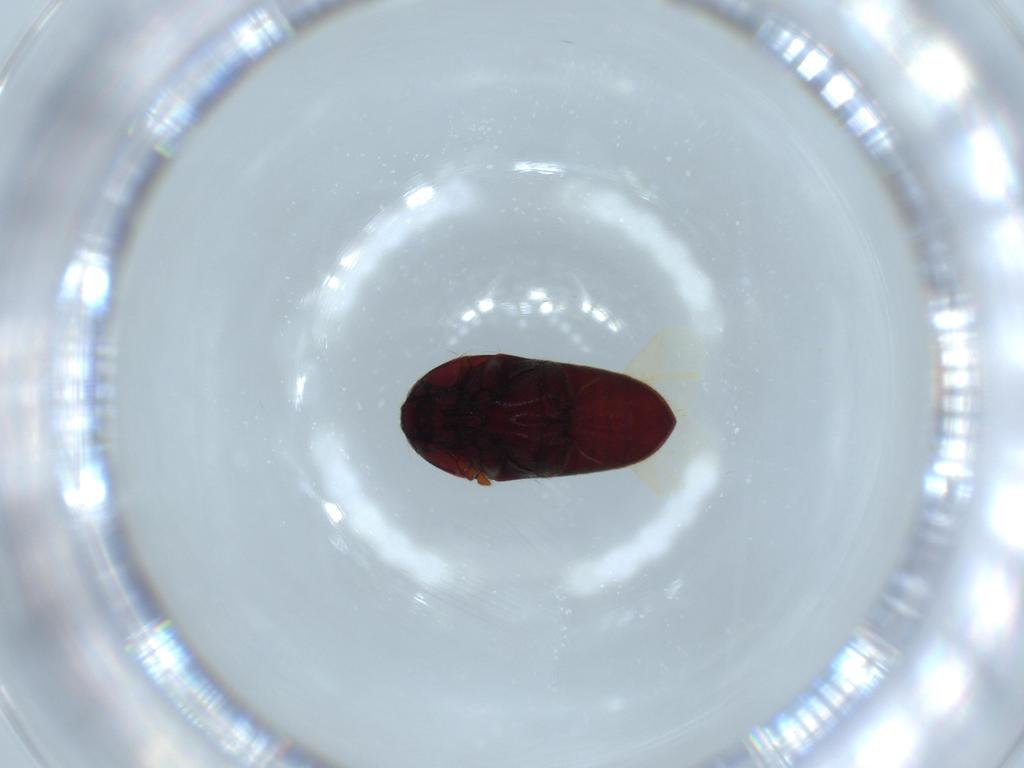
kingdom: Animalia
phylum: Arthropoda
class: Insecta
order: Coleoptera
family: Throscidae
